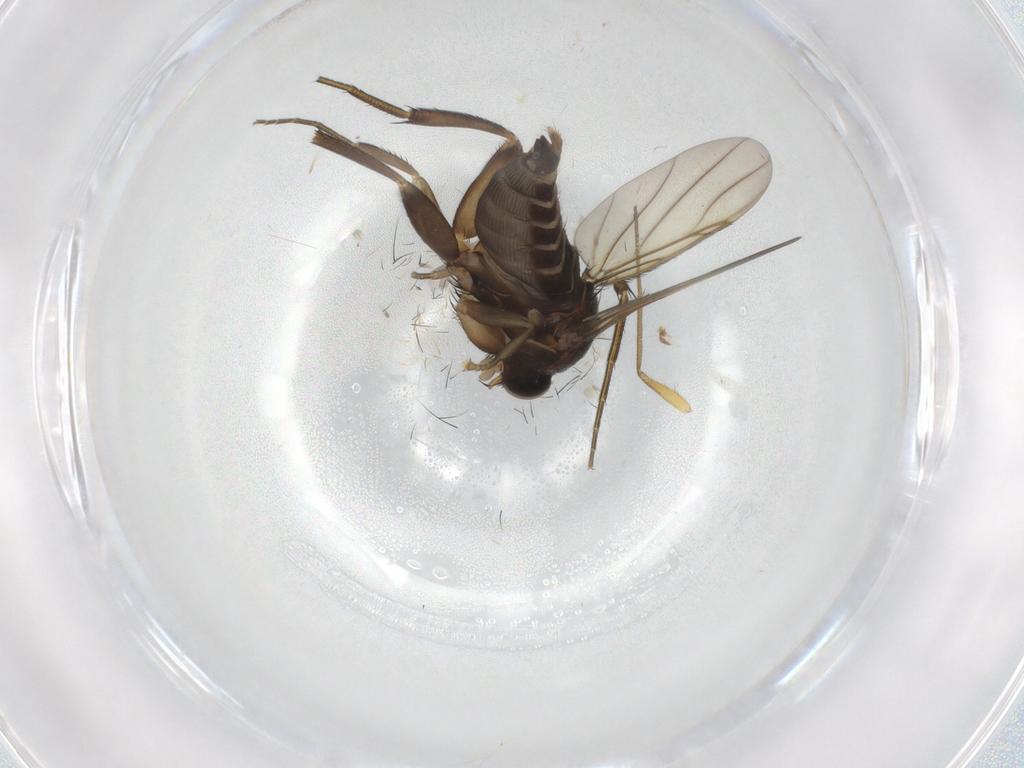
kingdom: Animalia
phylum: Arthropoda
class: Insecta
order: Diptera
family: Phoridae
